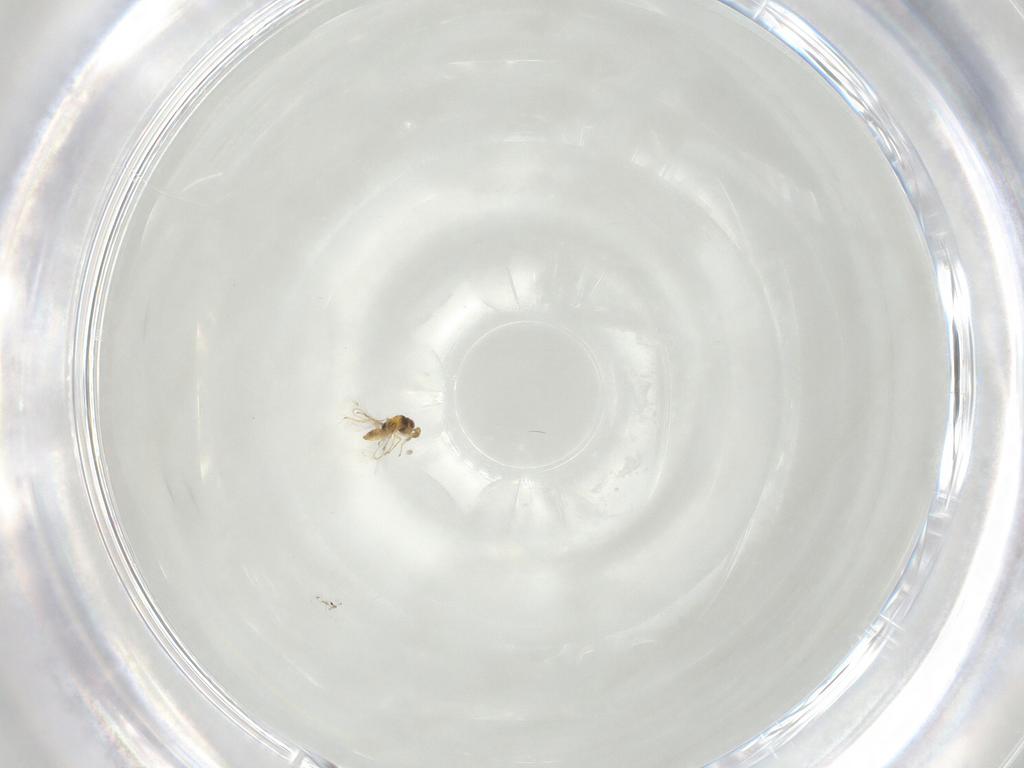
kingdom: Animalia
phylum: Arthropoda
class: Insecta
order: Hymenoptera
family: Eulophidae
